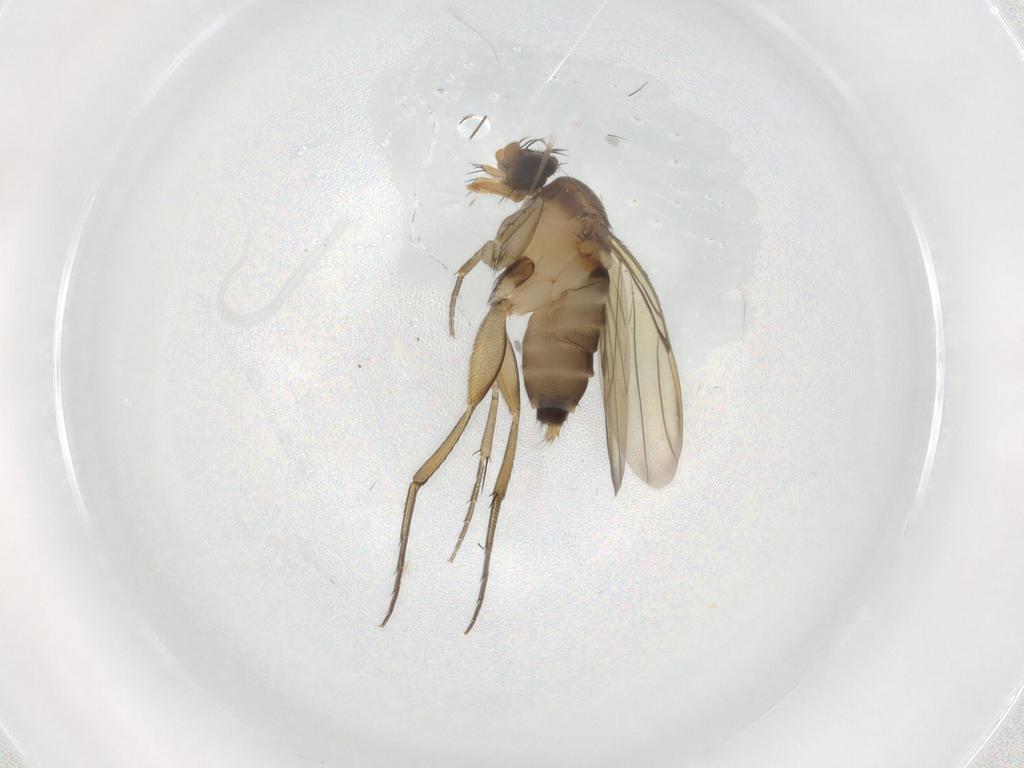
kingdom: Animalia
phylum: Arthropoda
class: Insecta
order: Diptera
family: Phoridae
